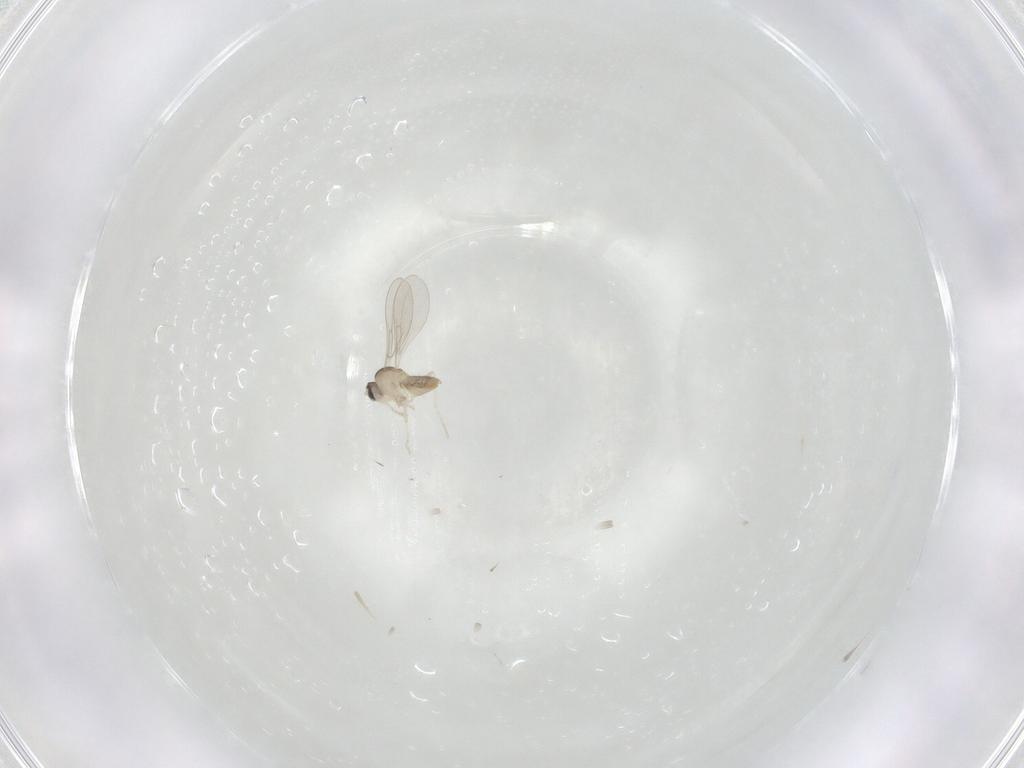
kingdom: Animalia
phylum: Arthropoda
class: Insecta
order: Diptera
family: Cecidomyiidae
